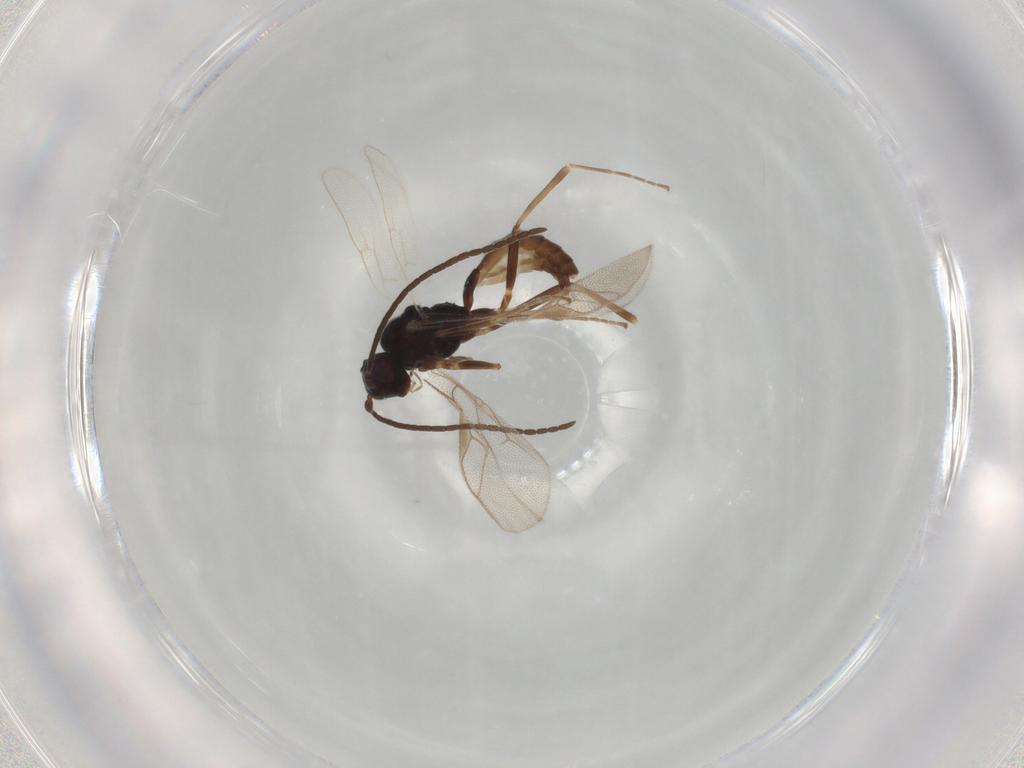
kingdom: Animalia
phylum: Arthropoda
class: Insecta
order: Hymenoptera
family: Ichneumonidae
